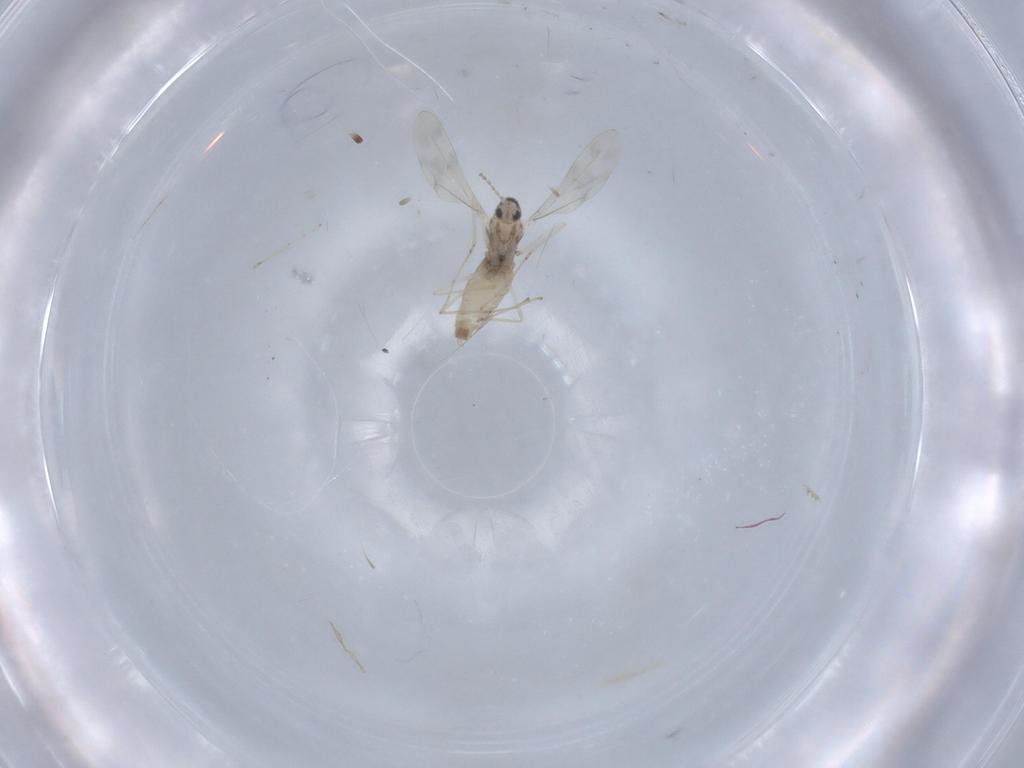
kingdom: Animalia
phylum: Arthropoda
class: Insecta
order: Diptera
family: Cecidomyiidae
